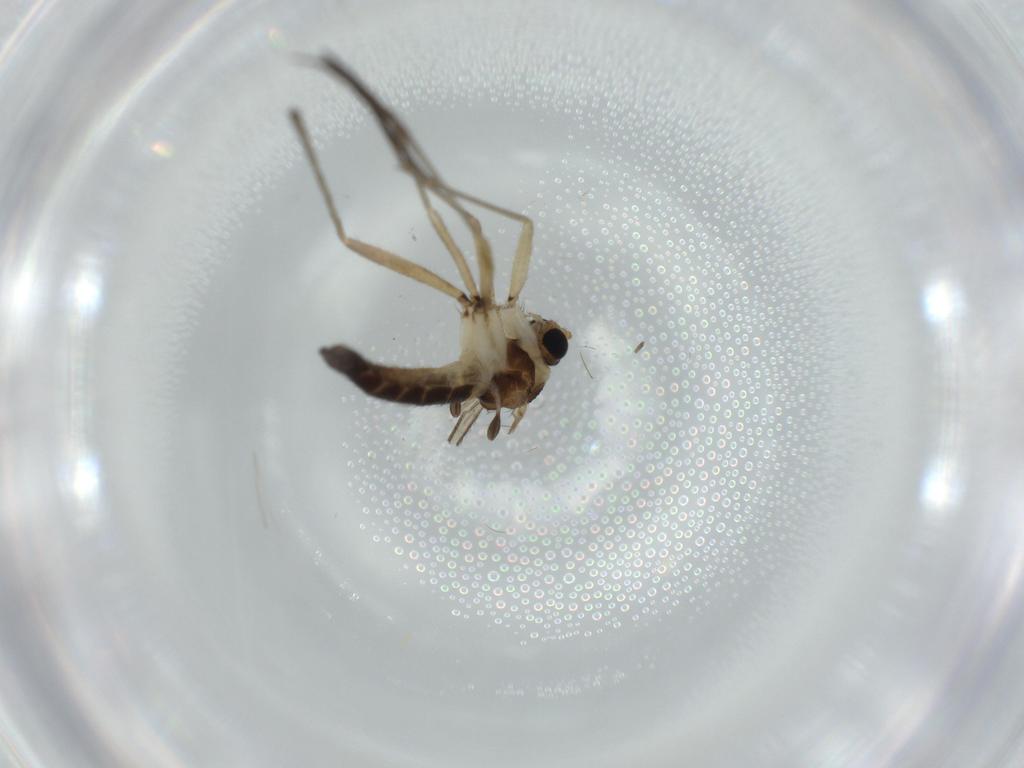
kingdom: Animalia
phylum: Arthropoda
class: Insecta
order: Diptera
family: Sciaridae
